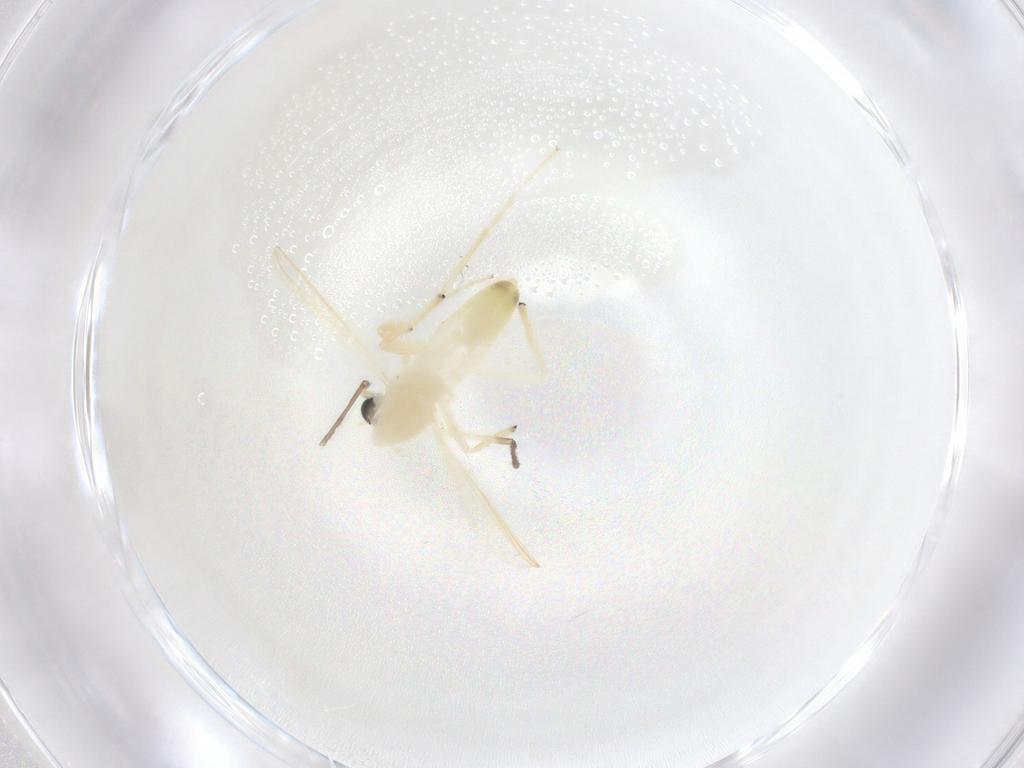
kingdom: Animalia
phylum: Arthropoda
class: Insecta
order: Diptera
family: Chironomidae
